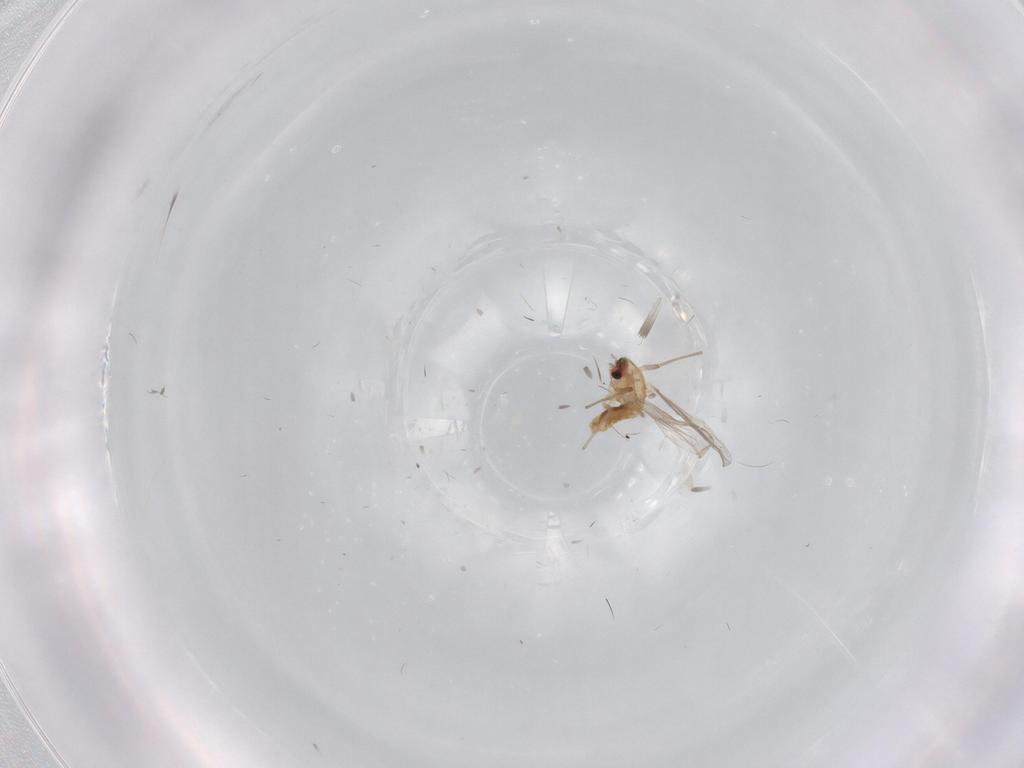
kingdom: Animalia
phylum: Arthropoda
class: Insecta
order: Diptera
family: Chironomidae
